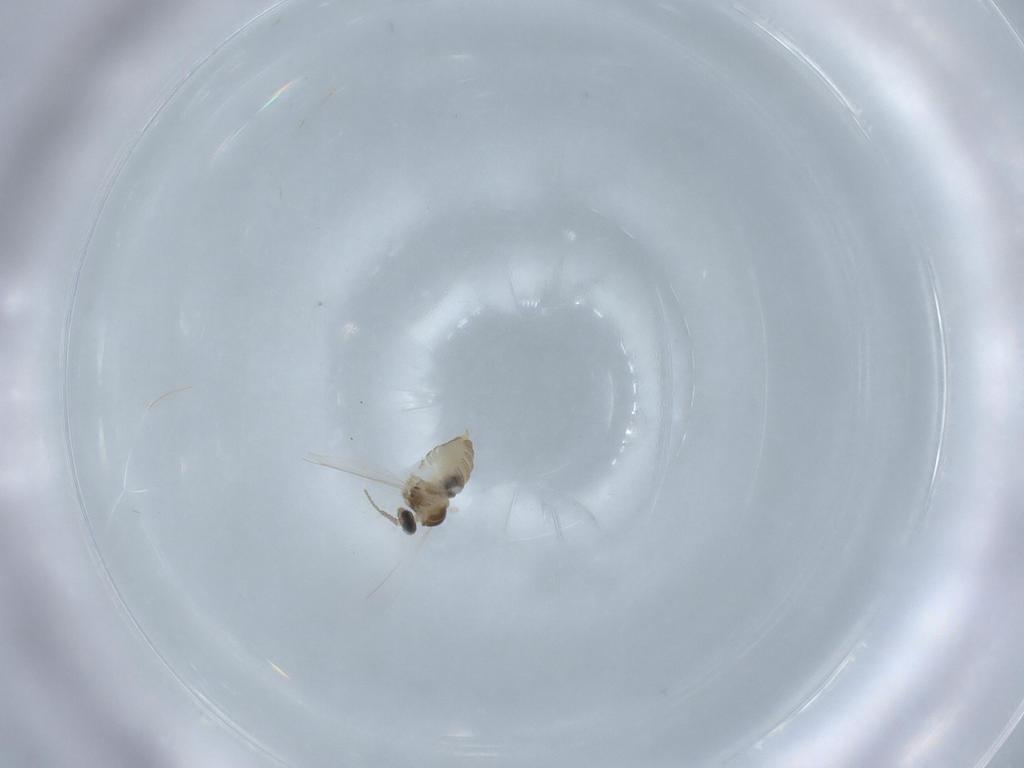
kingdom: Animalia
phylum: Arthropoda
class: Insecta
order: Diptera
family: Cecidomyiidae
